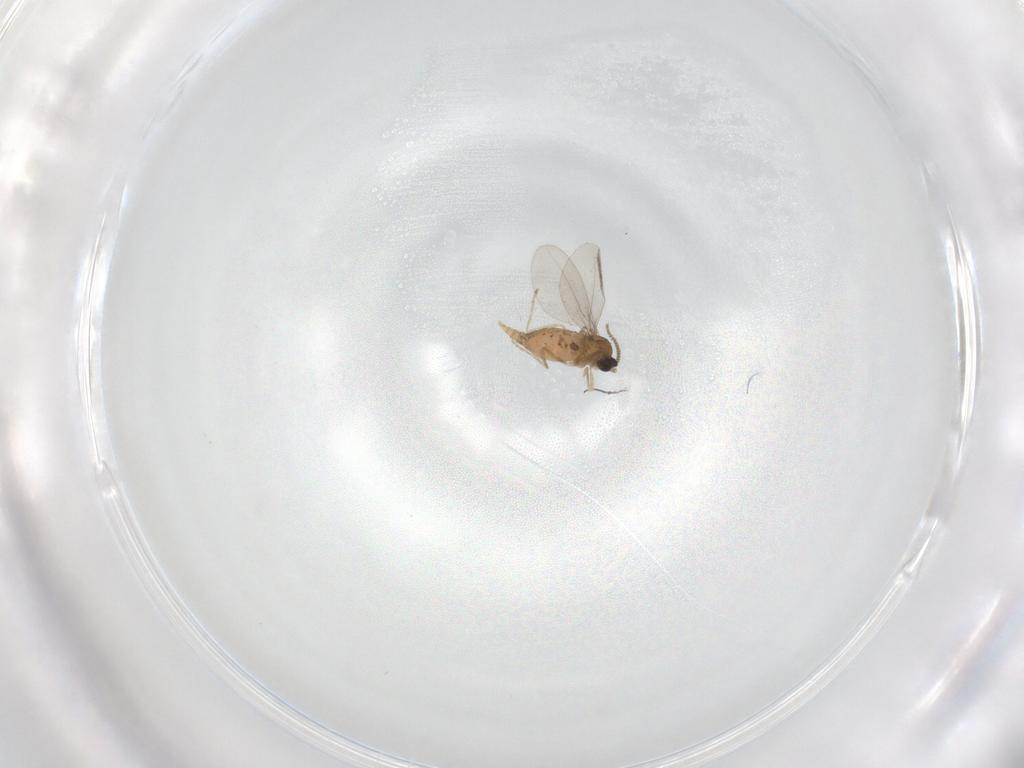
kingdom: Animalia
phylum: Arthropoda
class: Insecta
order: Diptera
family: Cecidomyiidae
